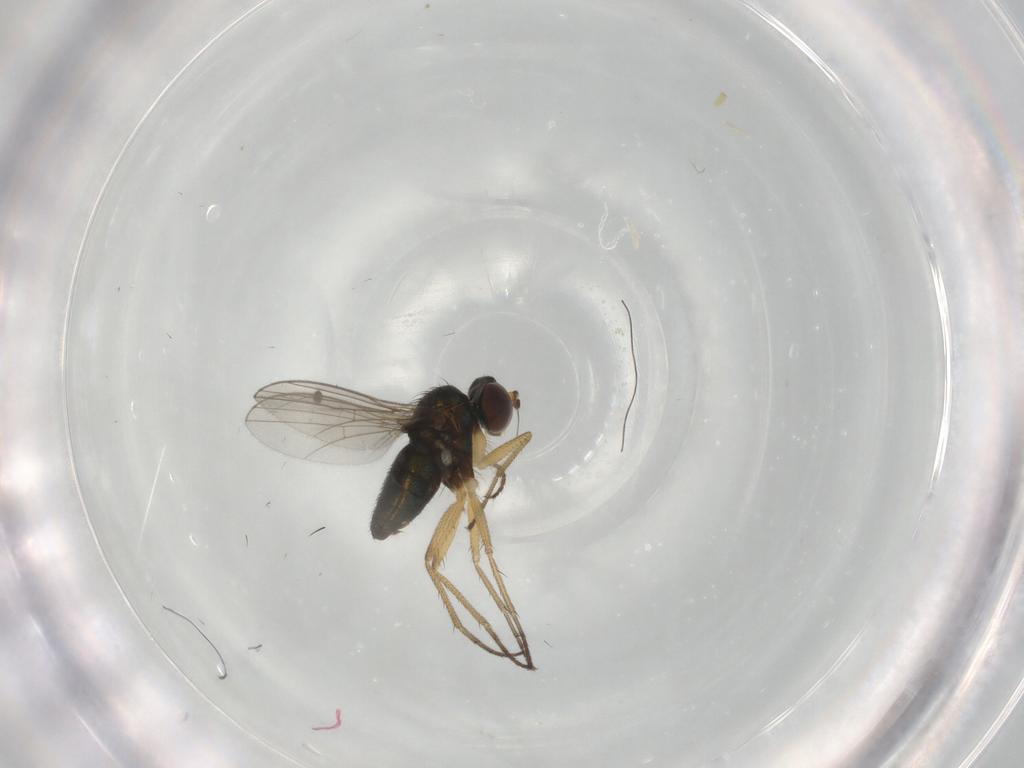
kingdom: Animalia
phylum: Arthropoda
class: Insecta
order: Diptera
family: Dolichopodidae
